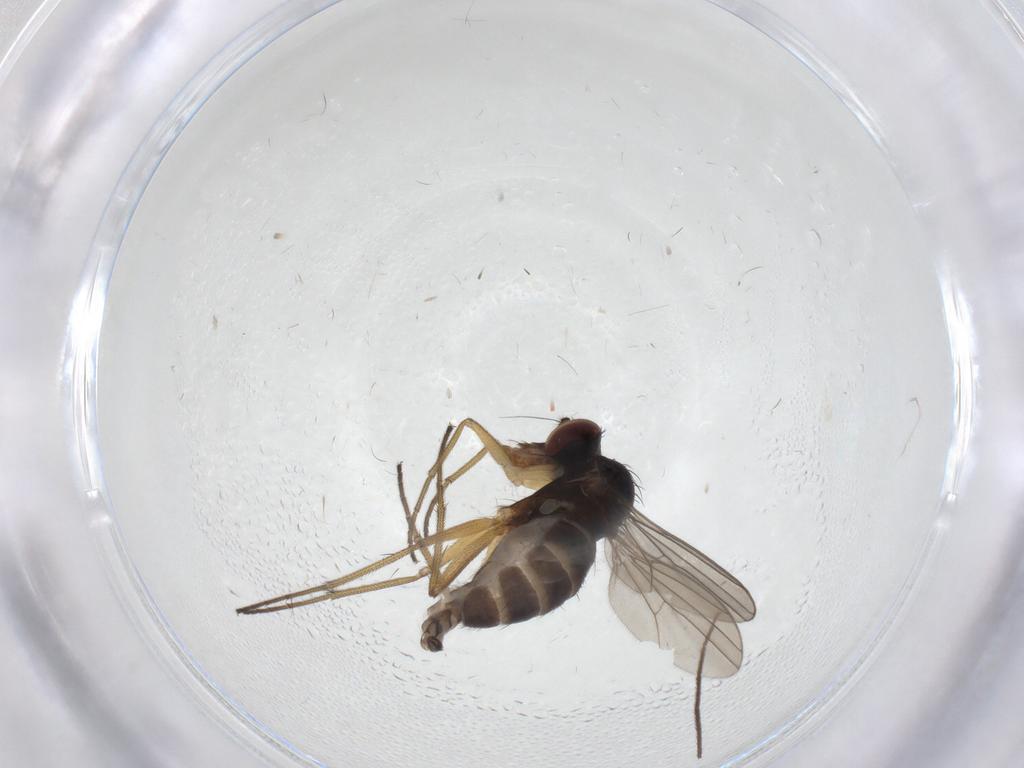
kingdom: Animalia
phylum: Arthropoda
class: Insecta
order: Diptera
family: Dolichopodidae
